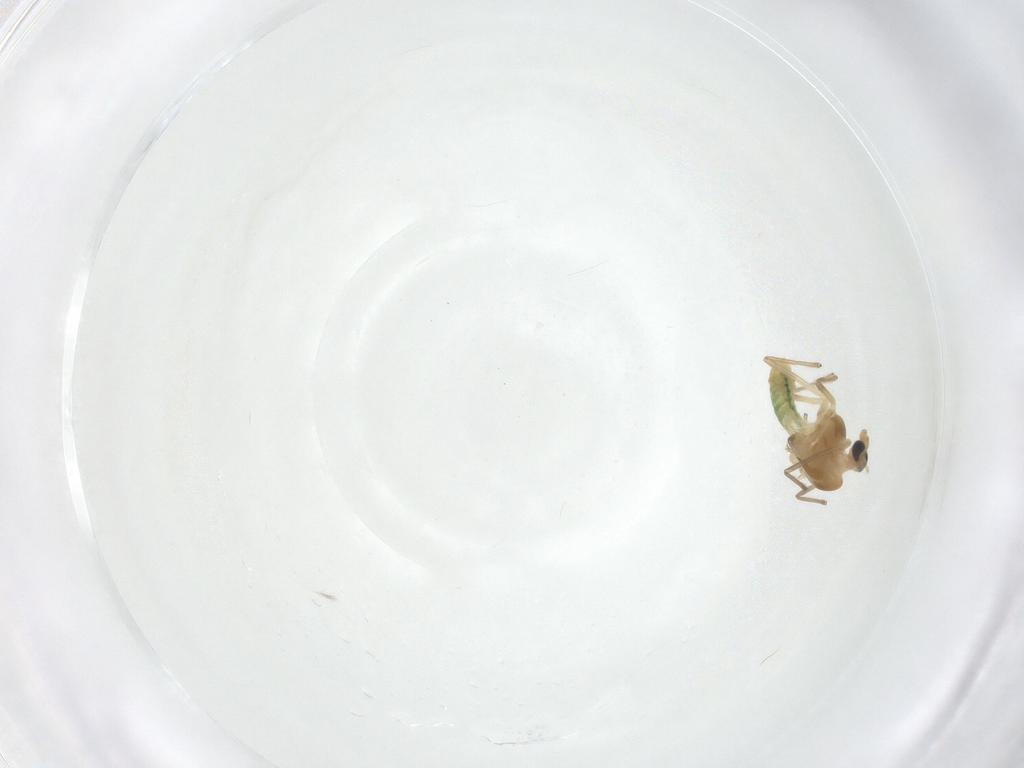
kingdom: Animalia
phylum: Arthropoda
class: Insecta
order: Diptera
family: Chironomidae
